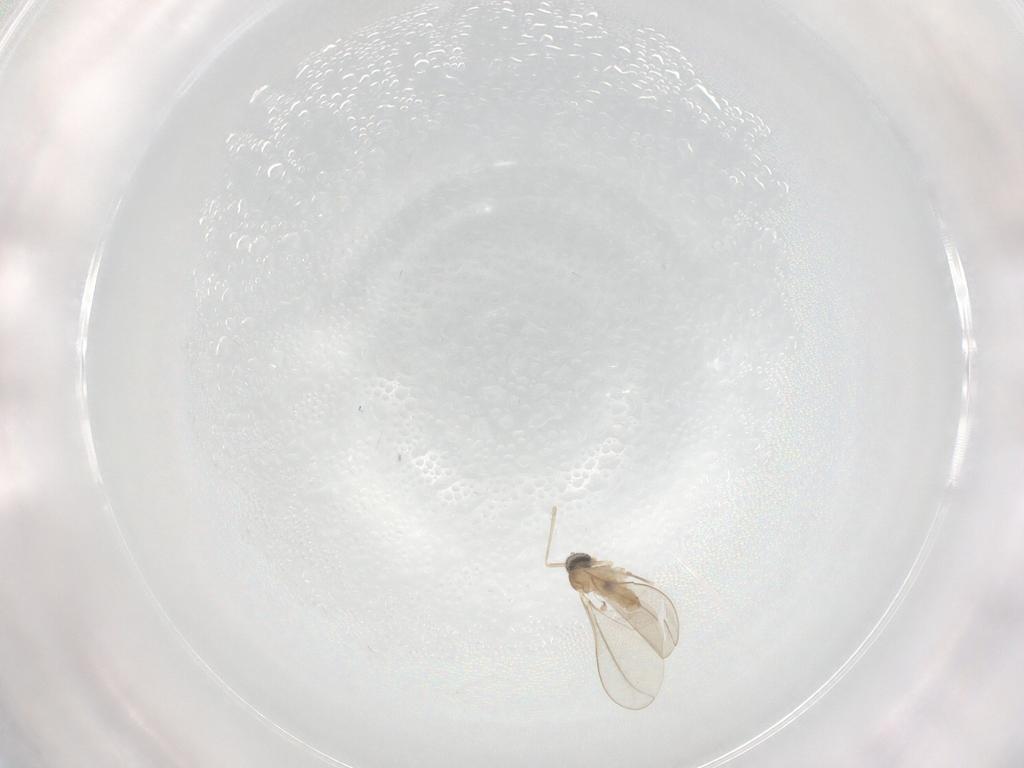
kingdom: Animalia
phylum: Arthropoda
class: Insecta
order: Diptera
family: Cecidomyiidae
